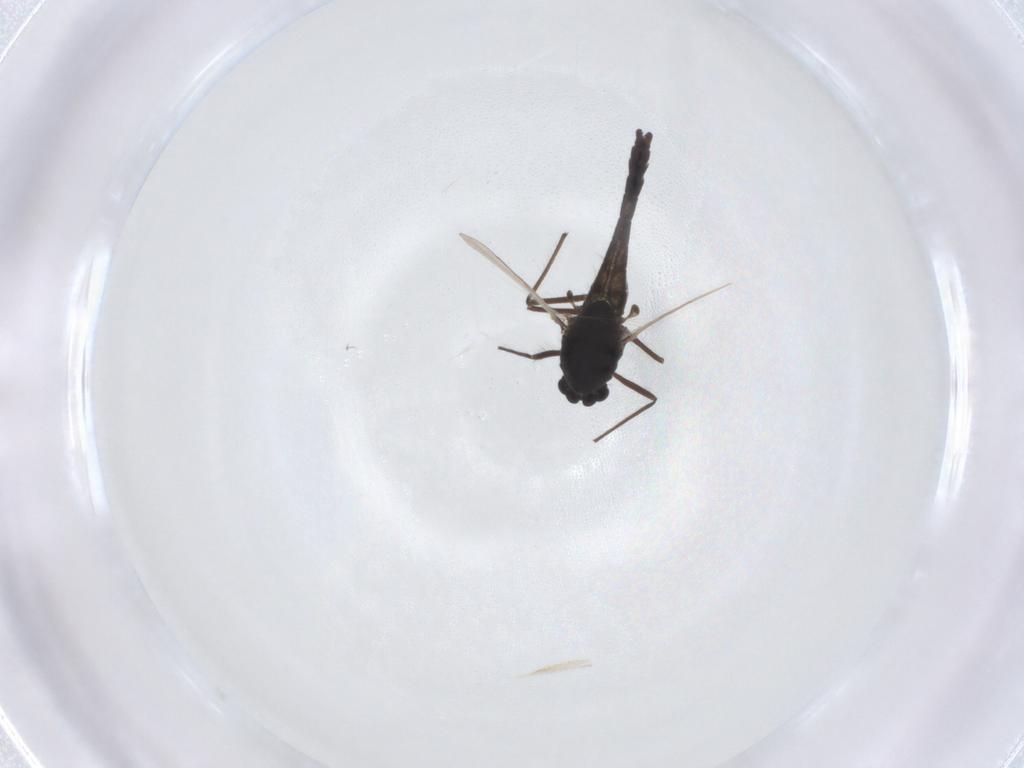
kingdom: Animalia
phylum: Arthropoda
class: Insecta
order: Diptera
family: Chironomidae
